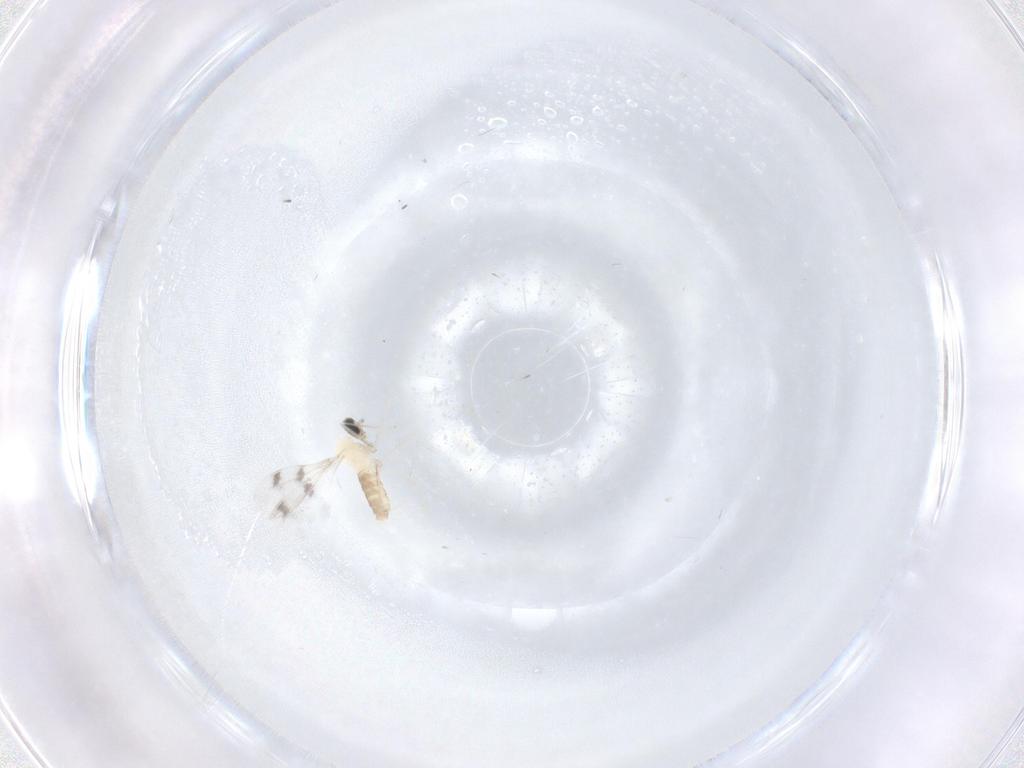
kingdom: Animalia
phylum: Arthropoda
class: Insecta
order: Diptera
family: Cecidomyiidae
